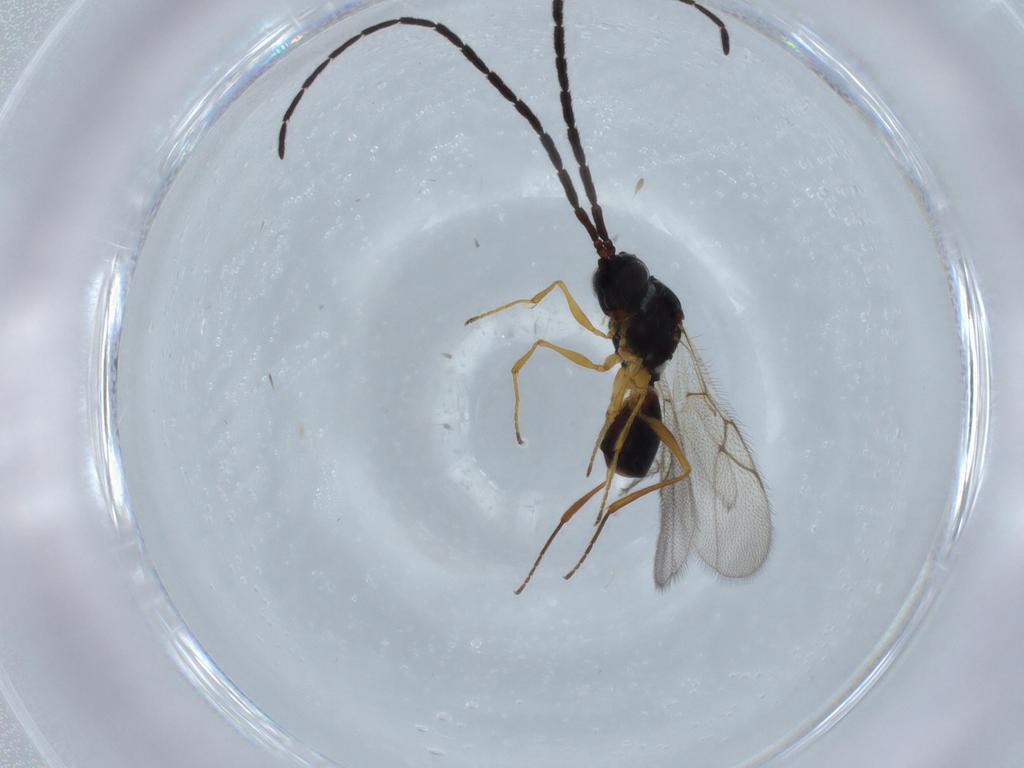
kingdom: Animalia
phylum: Arthropoda
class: Insecta
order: Hymenoptera
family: Figitidae
